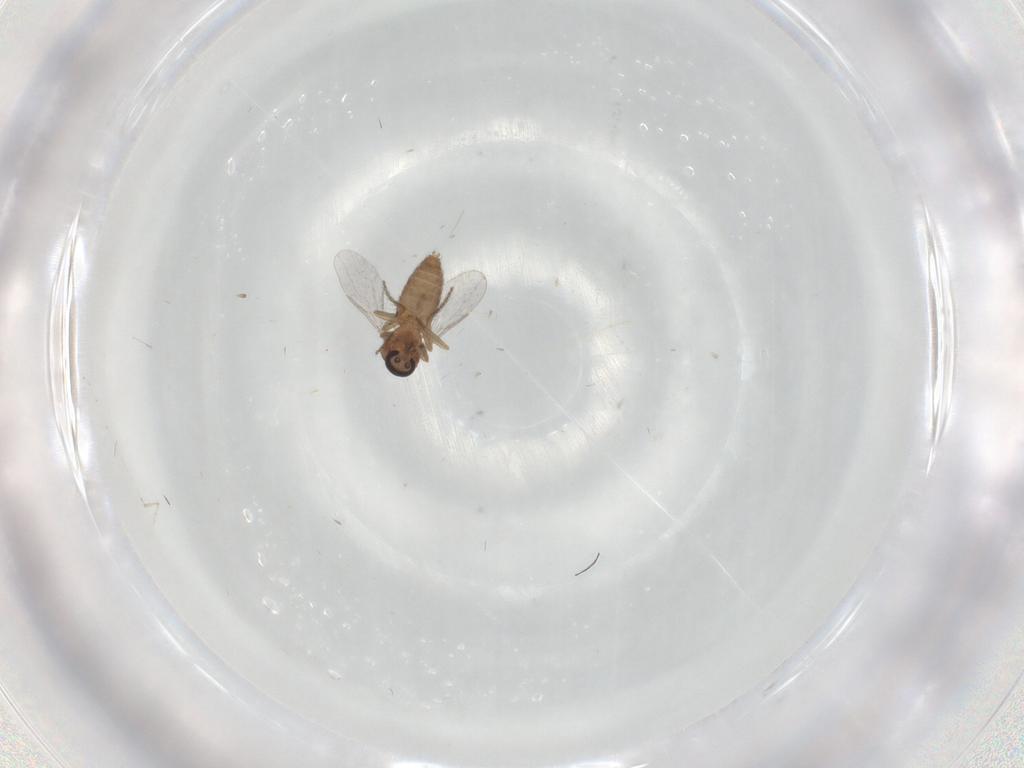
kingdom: Animalia
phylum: Arthropoda
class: Insecta
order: Diptera
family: Ceratopogonidae
